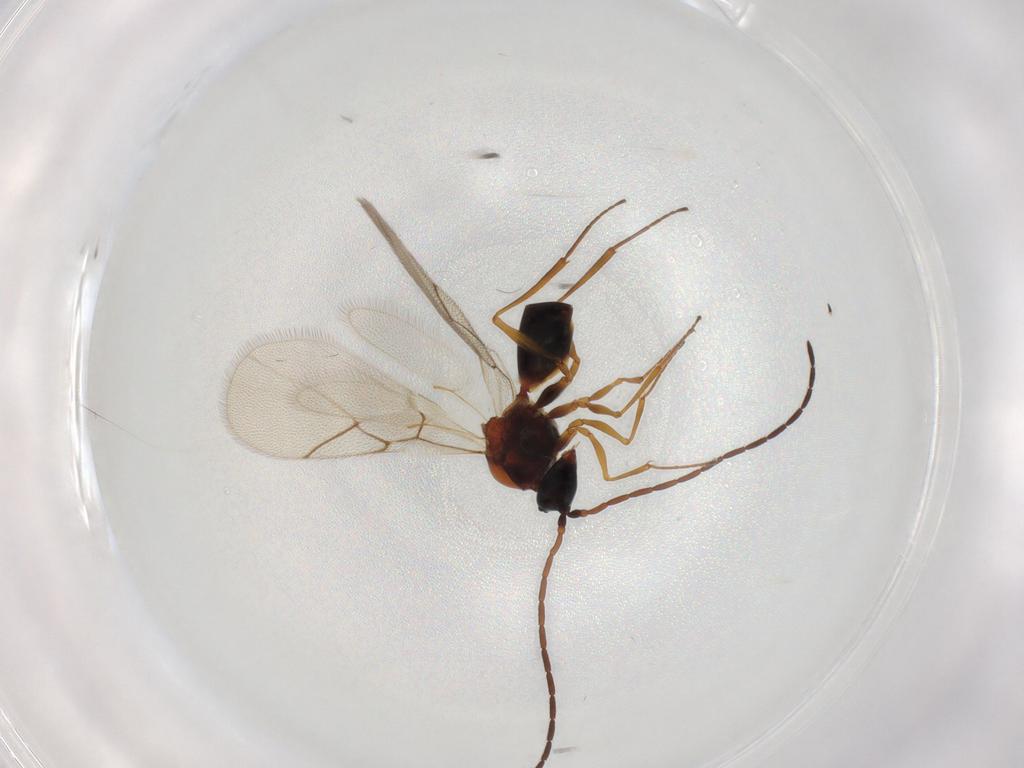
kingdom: Animalia
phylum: Arthropoda
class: Insecta
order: Hymenoptera
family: Figitidae
